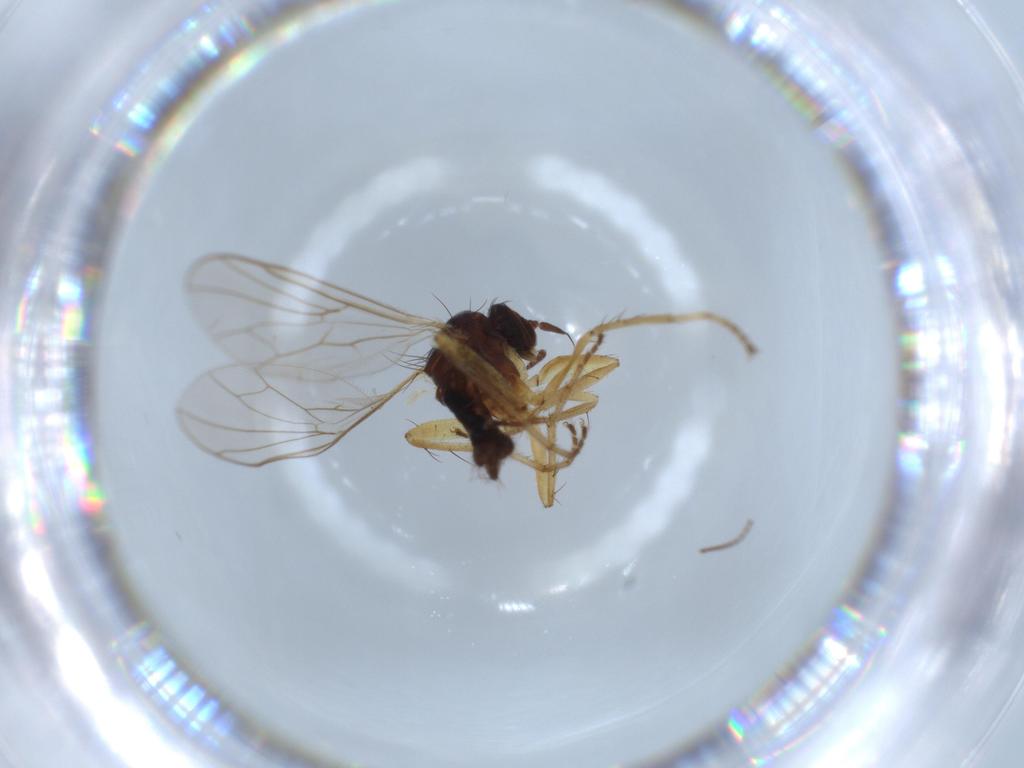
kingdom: Animalia
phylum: Arthropoda
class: Insecta
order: Diptera
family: Hybotidae
